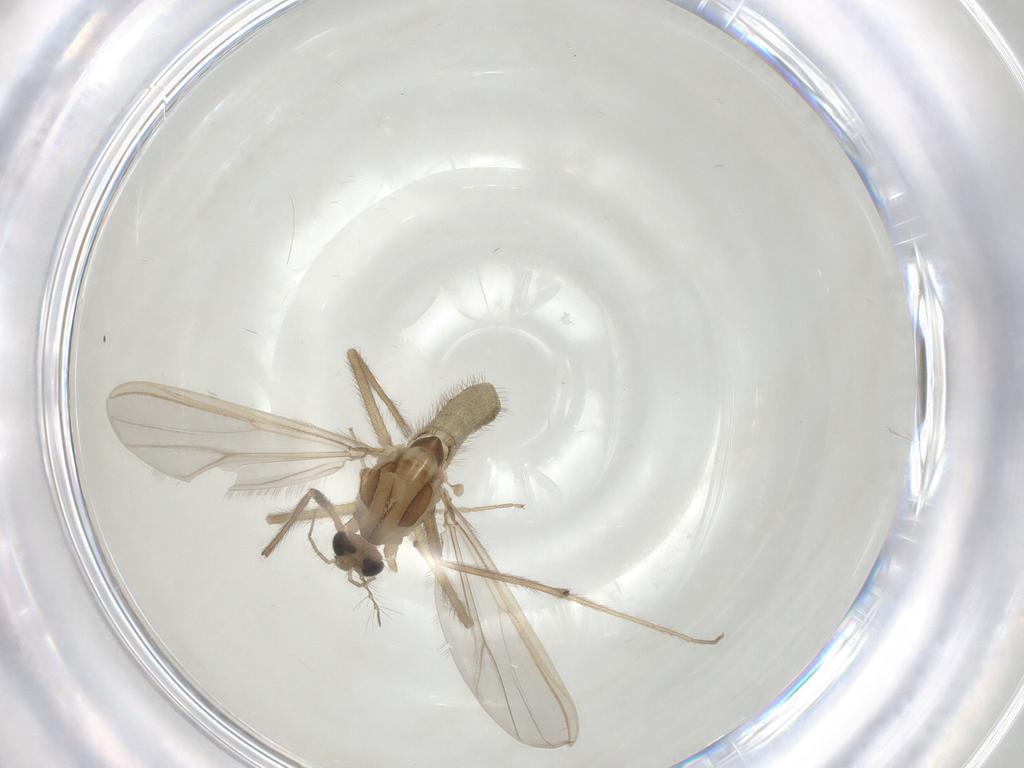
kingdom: Animalia
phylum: Arthropoda
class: Insecta
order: Diptera
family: Chironomidae
